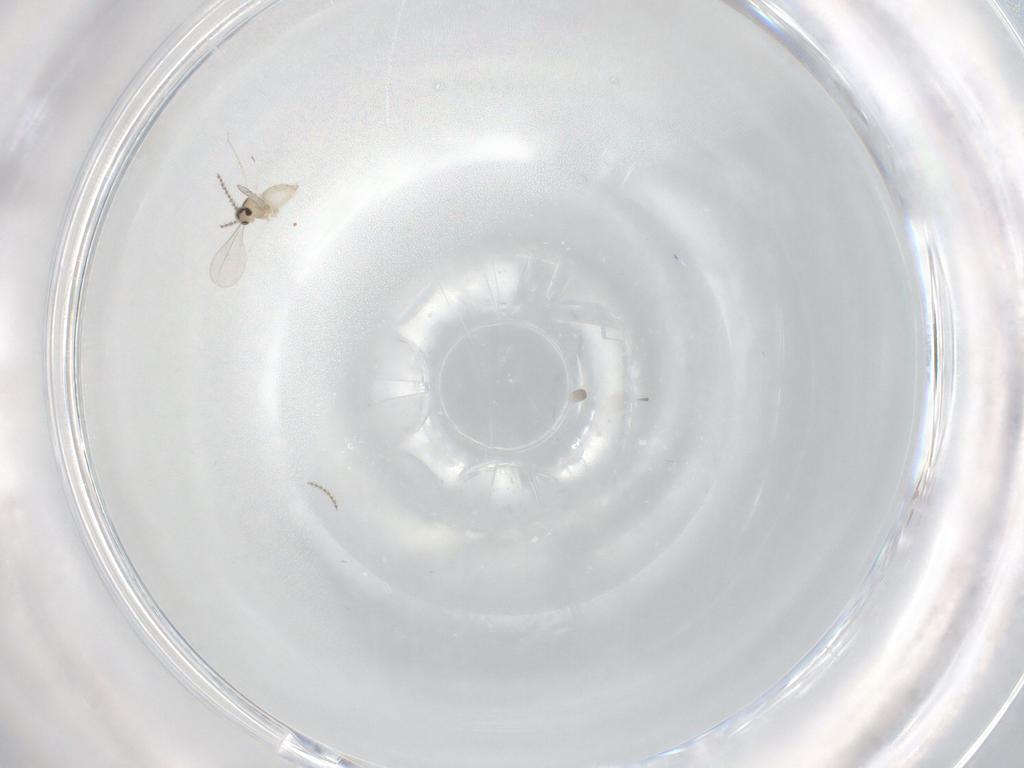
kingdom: Animalia
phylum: Arthropoda
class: Insecta
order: Diptera
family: Cecidomyiidae
